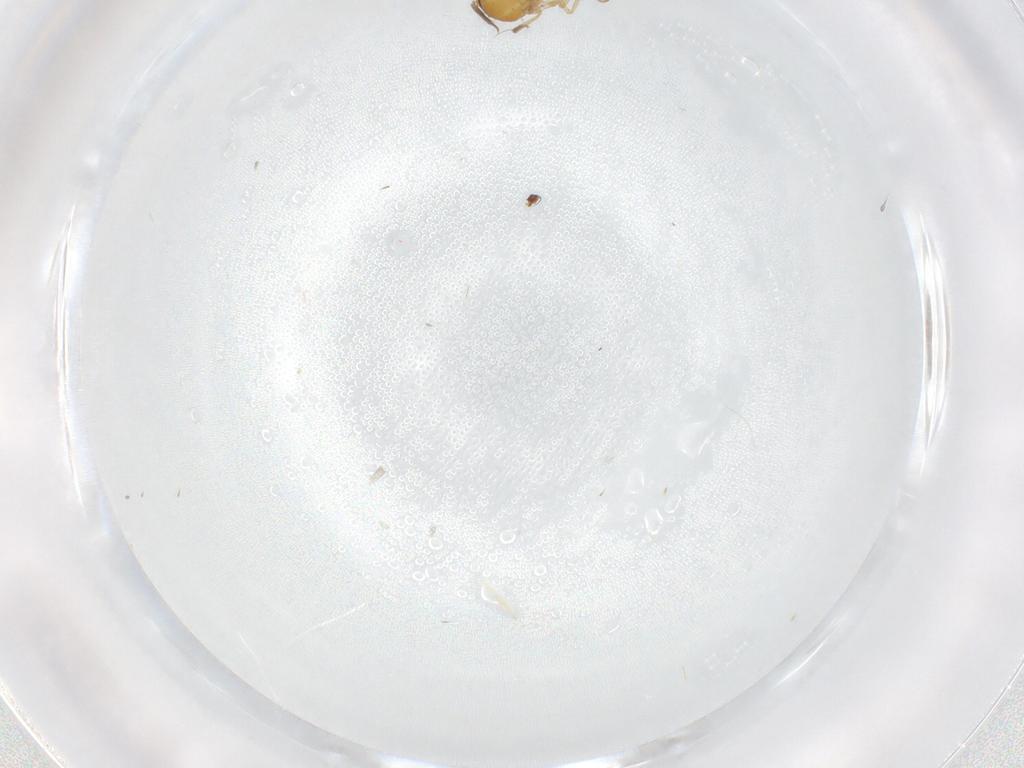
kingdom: Animalia
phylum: Arthropoda
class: Insecta
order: Diptera
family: Ceratopogonidae
